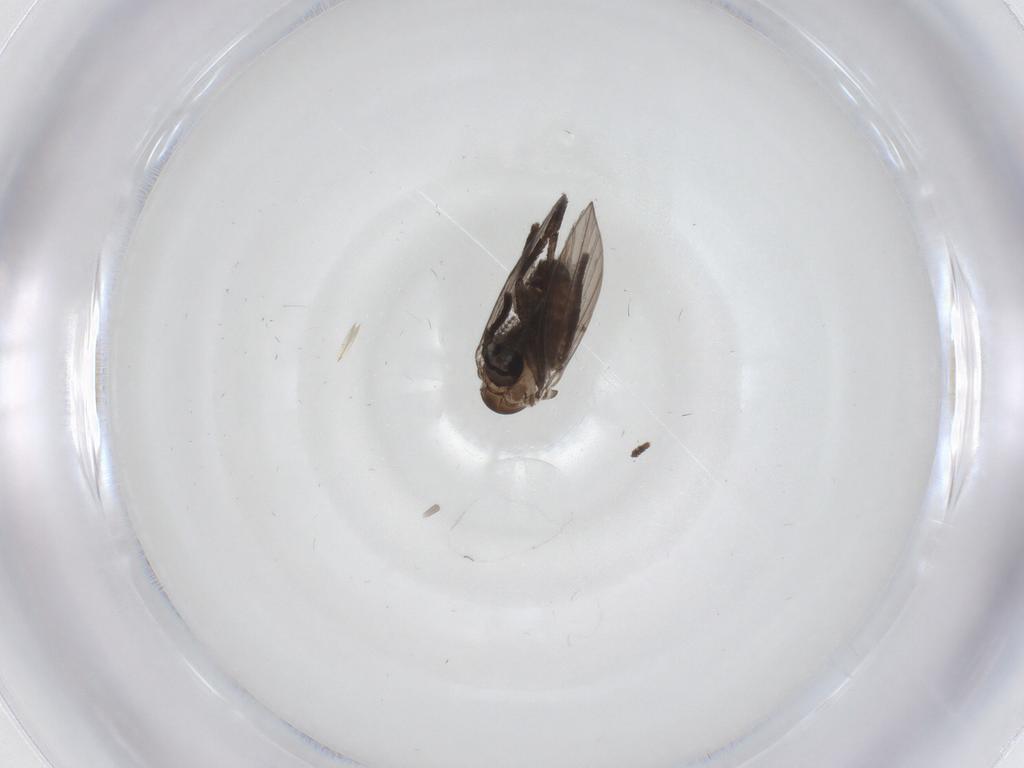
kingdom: Animalia
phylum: Arthropoda
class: Insecta
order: Diptera
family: Psychodidae
